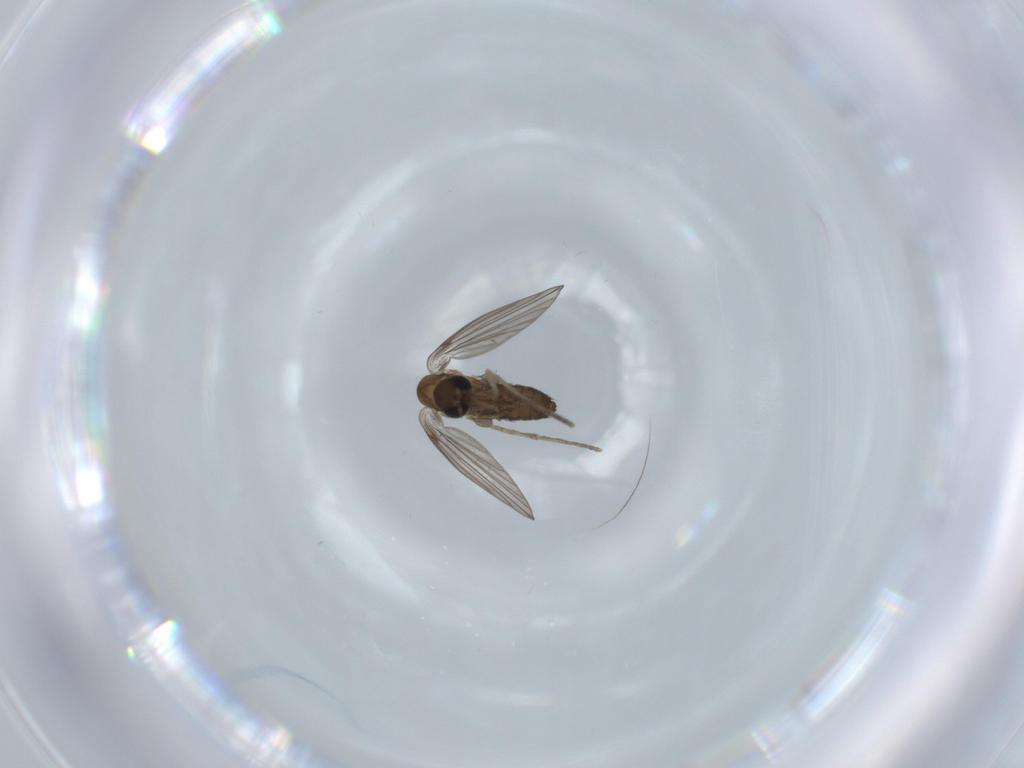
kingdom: Animalia
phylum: Arthropoda
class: Insecta
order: Diptera
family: Psychodidae
